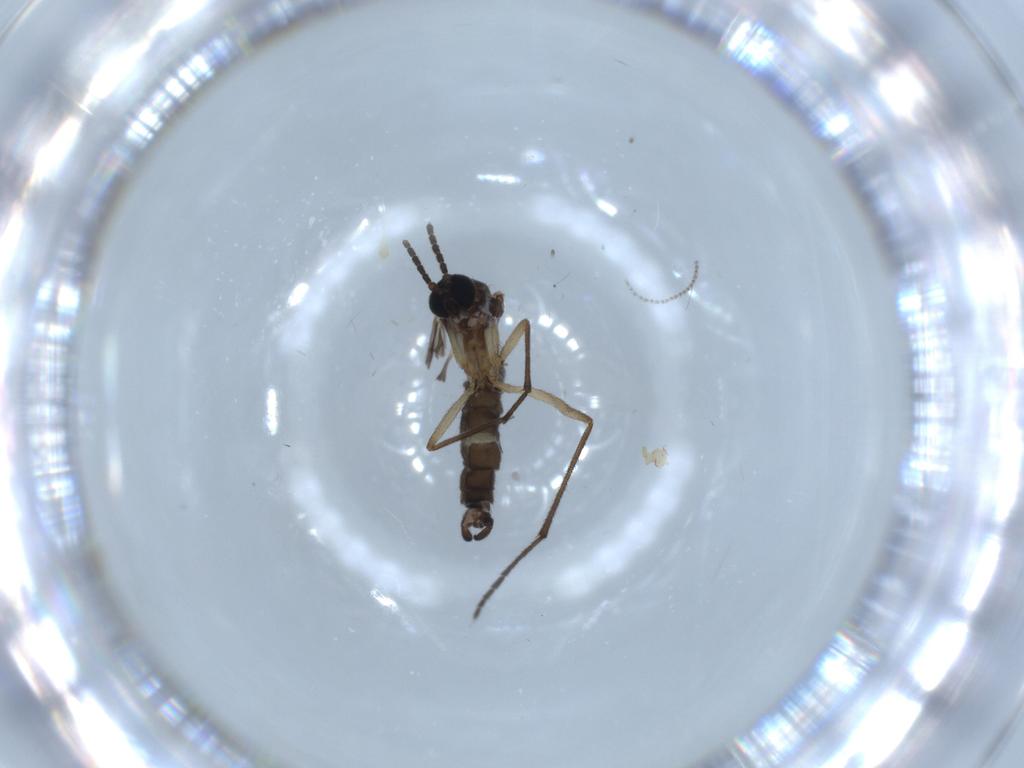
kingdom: Animalia
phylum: Arthropoda
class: Insecta
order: Diptera
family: Sciaridae
